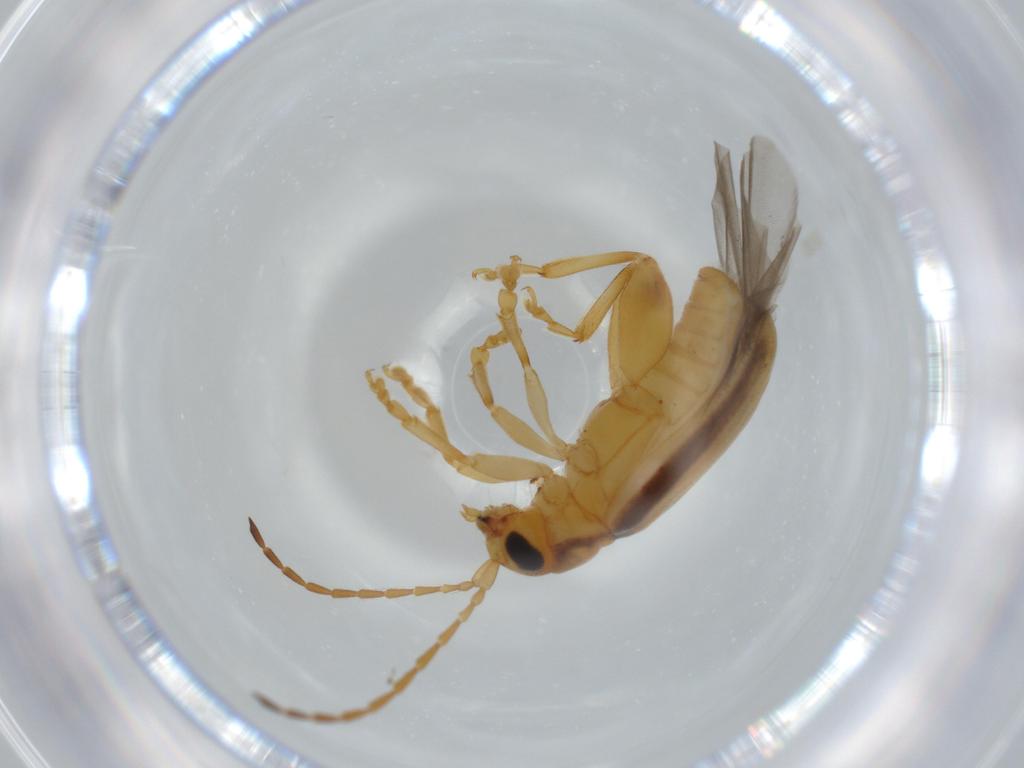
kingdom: Animalia
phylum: Arthropoda
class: Insecta
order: Coleoptera
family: Chrysomelidae
